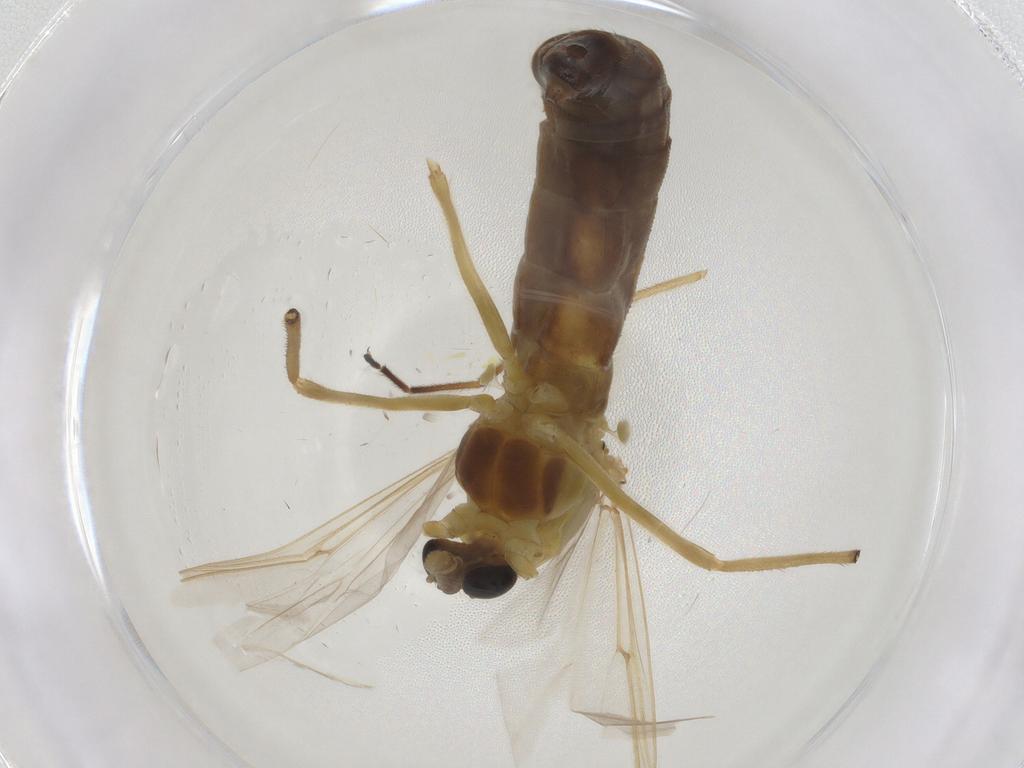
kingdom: Animalia
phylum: Arthropoda
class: Insecta
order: Diptera
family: Chironomidae
